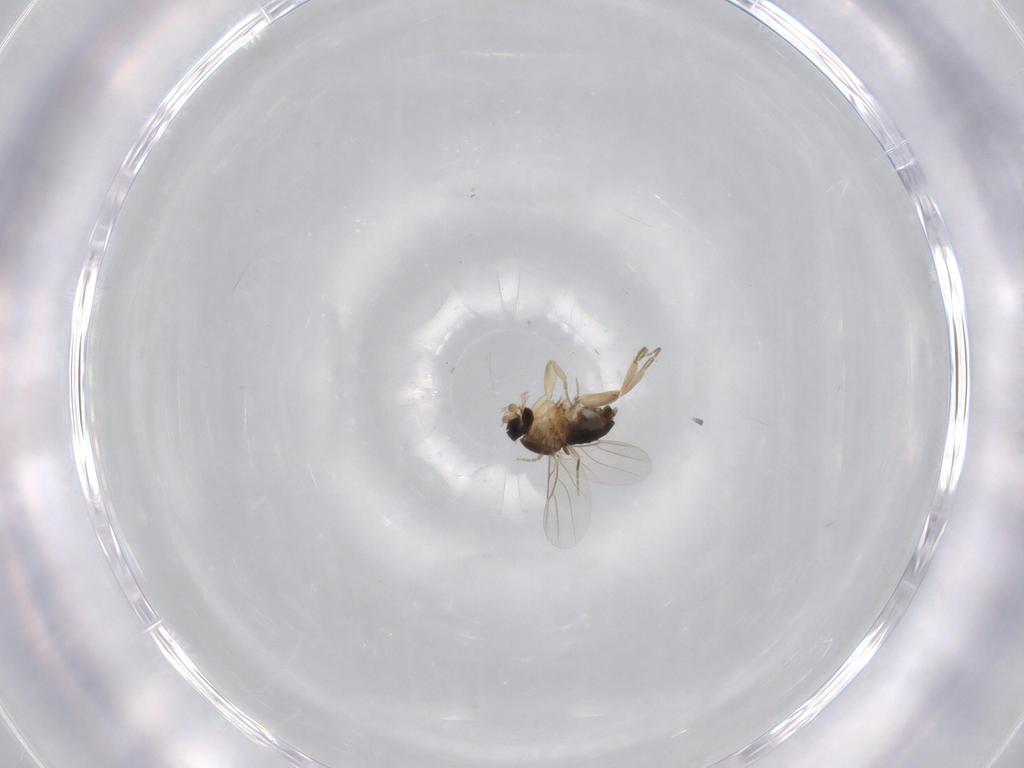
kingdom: Animalia
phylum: Arthropoda
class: Insecta
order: Diptera
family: Phoridae
